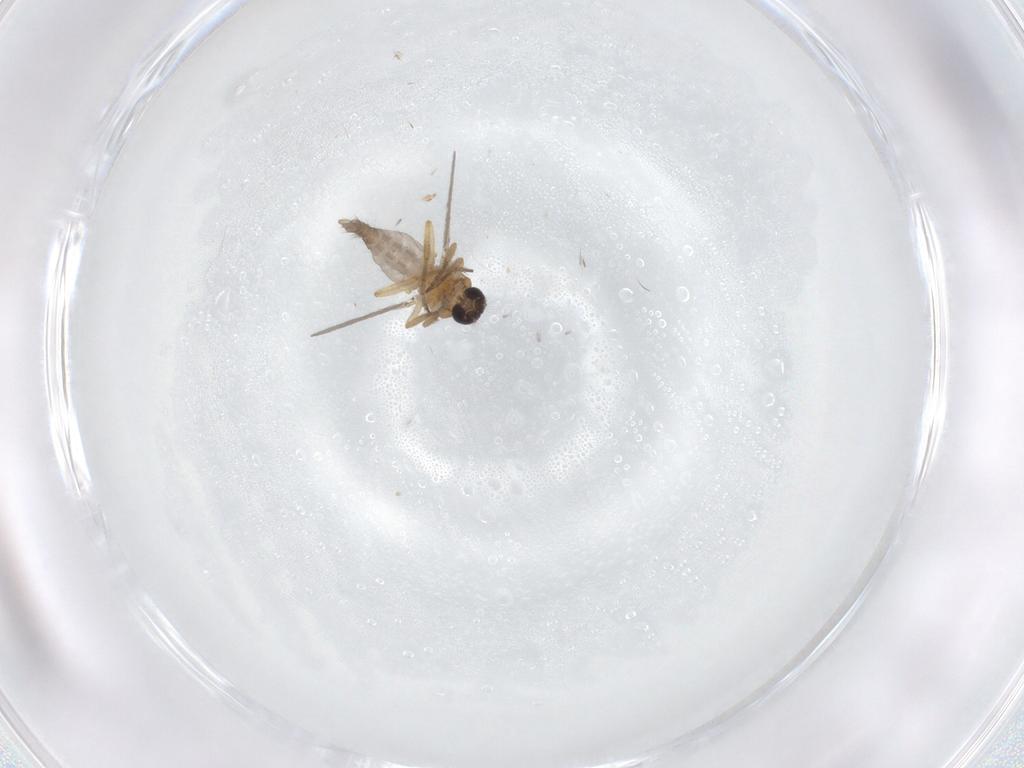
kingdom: Animalia
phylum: Arthropoda
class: Insecta
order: Diptera
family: Ceratopogonidae
